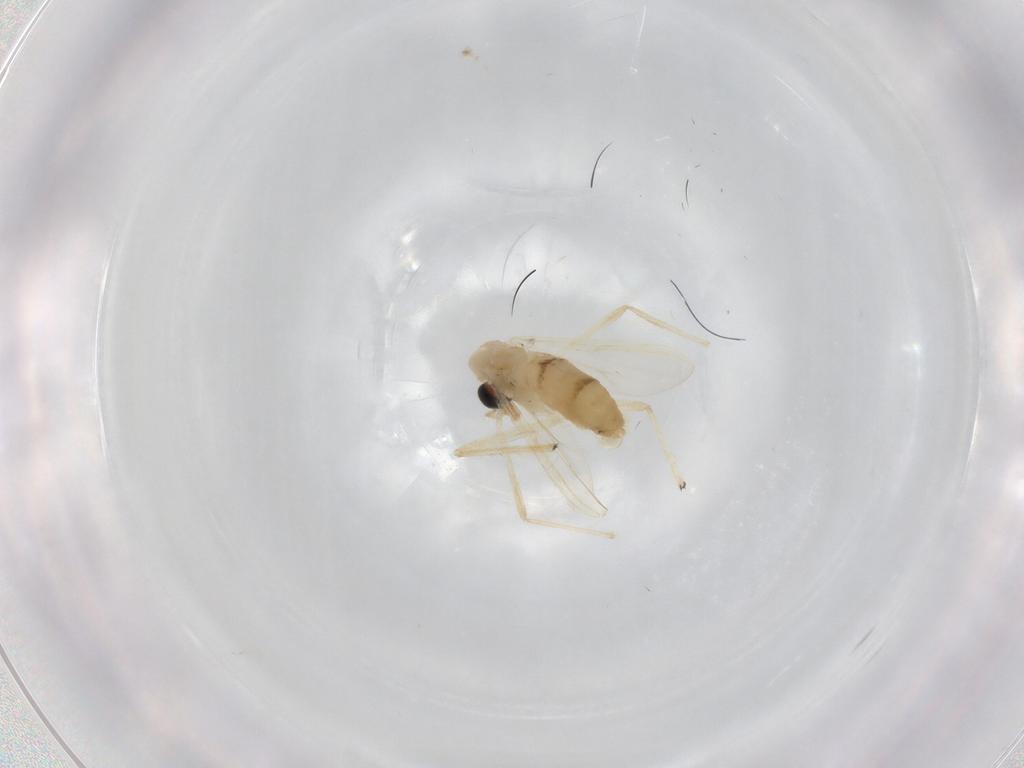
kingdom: Animalia
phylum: Arthropoda
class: Insecta
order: Diptera
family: Chironomidae
